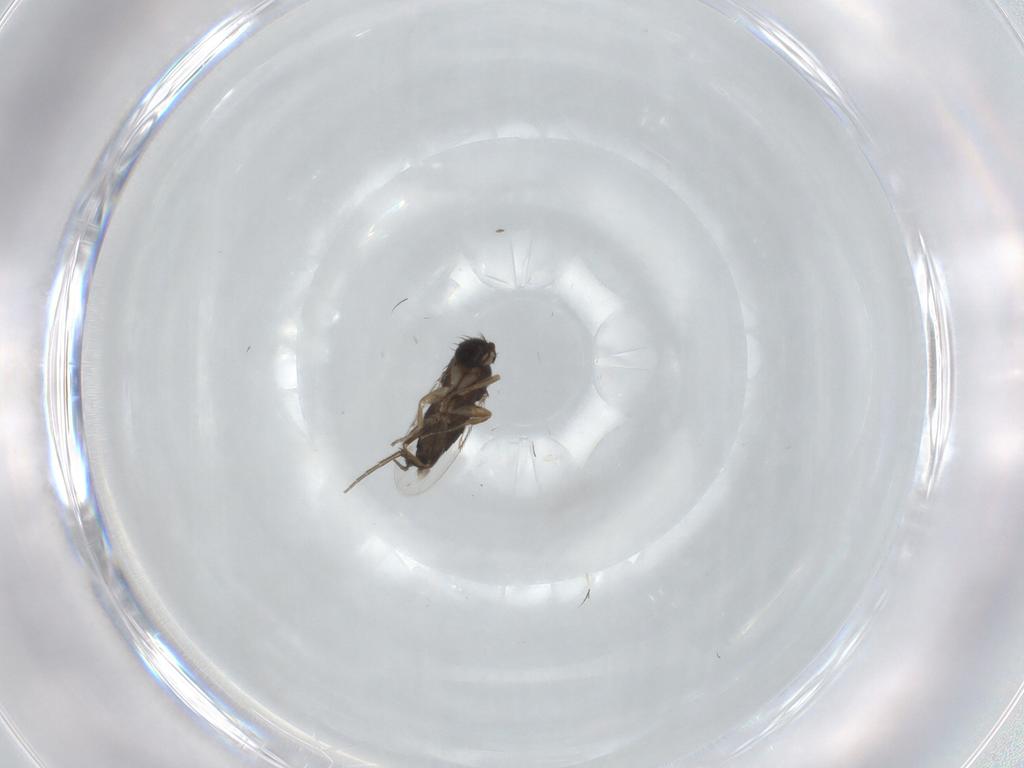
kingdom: Animalia
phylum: Arthropoda
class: Insecta
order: Diptera
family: Phoridae
